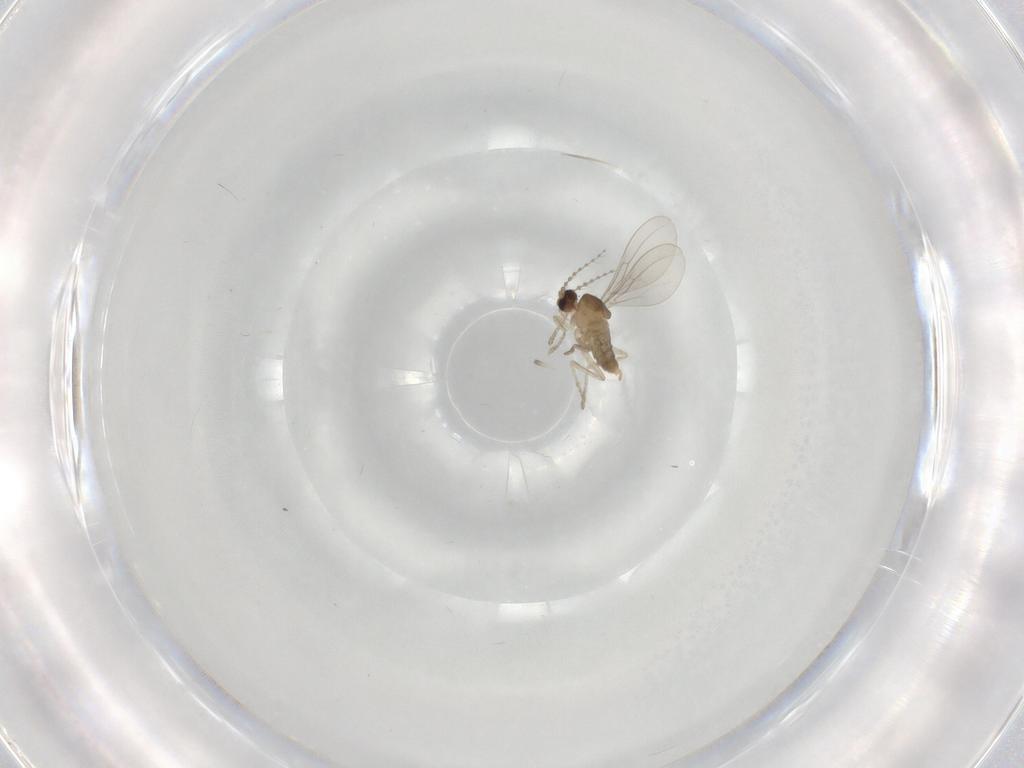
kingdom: Animalia
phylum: Arthropoda
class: Insecta
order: Diptera
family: Cecidomyiidae
